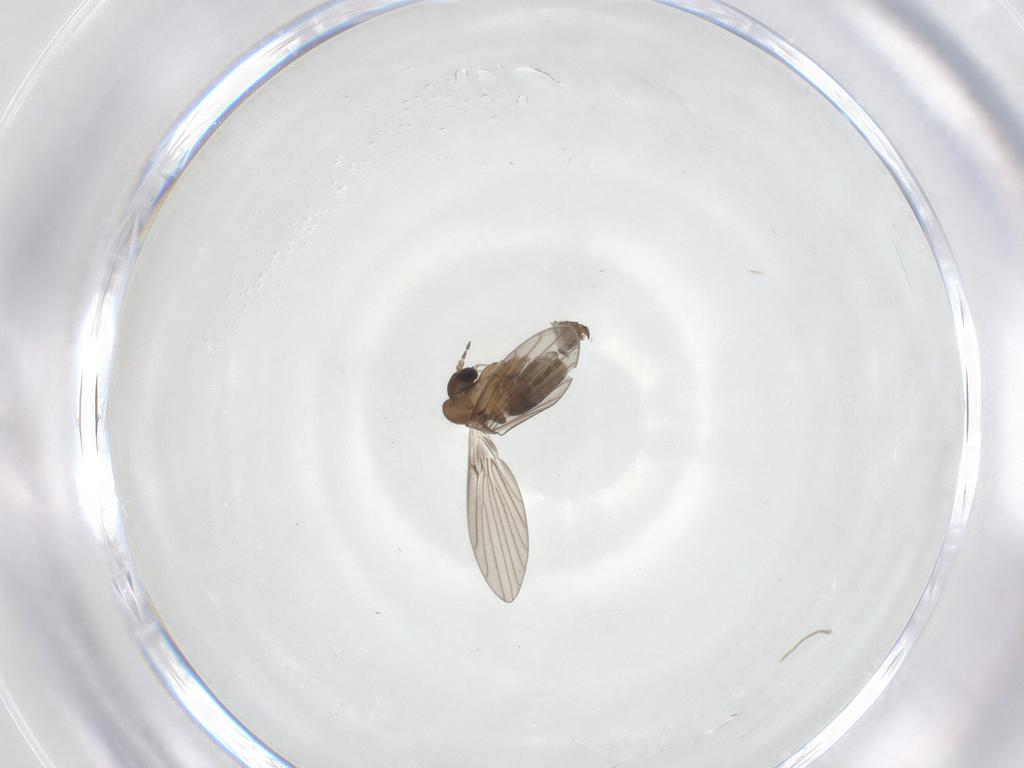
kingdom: Animalia
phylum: Arthropoda
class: Insecta
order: Diptera
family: Psychodidae
